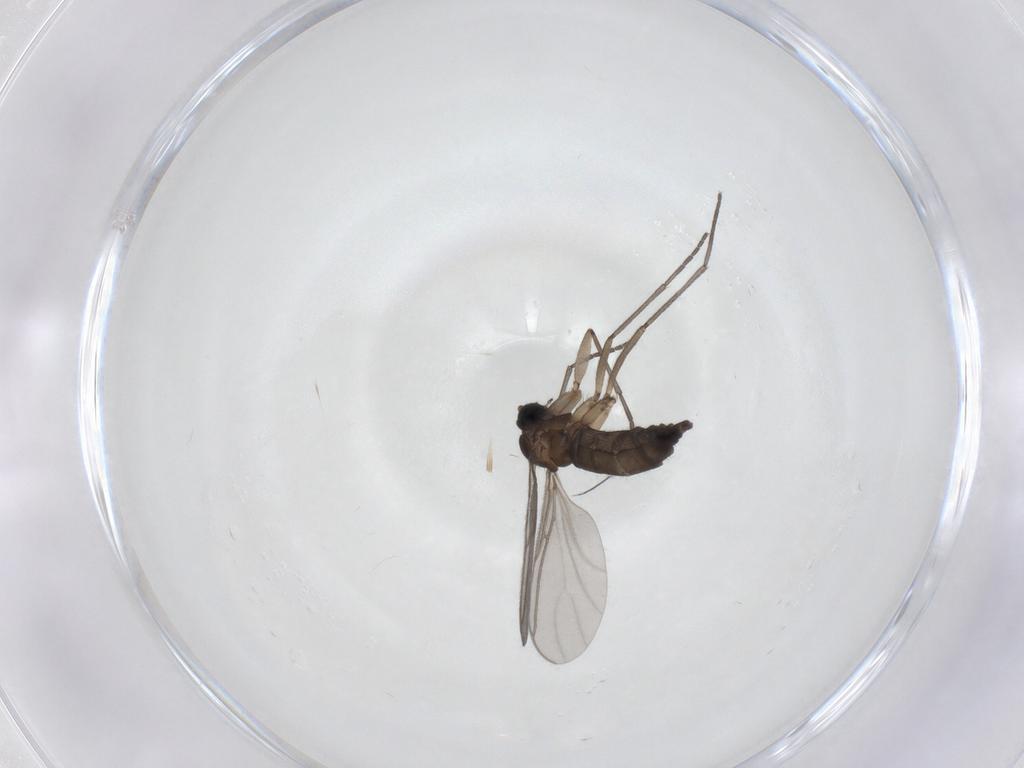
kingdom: Animalia
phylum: Arthropoda
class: Insecta
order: Diptera
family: Sciaridae
